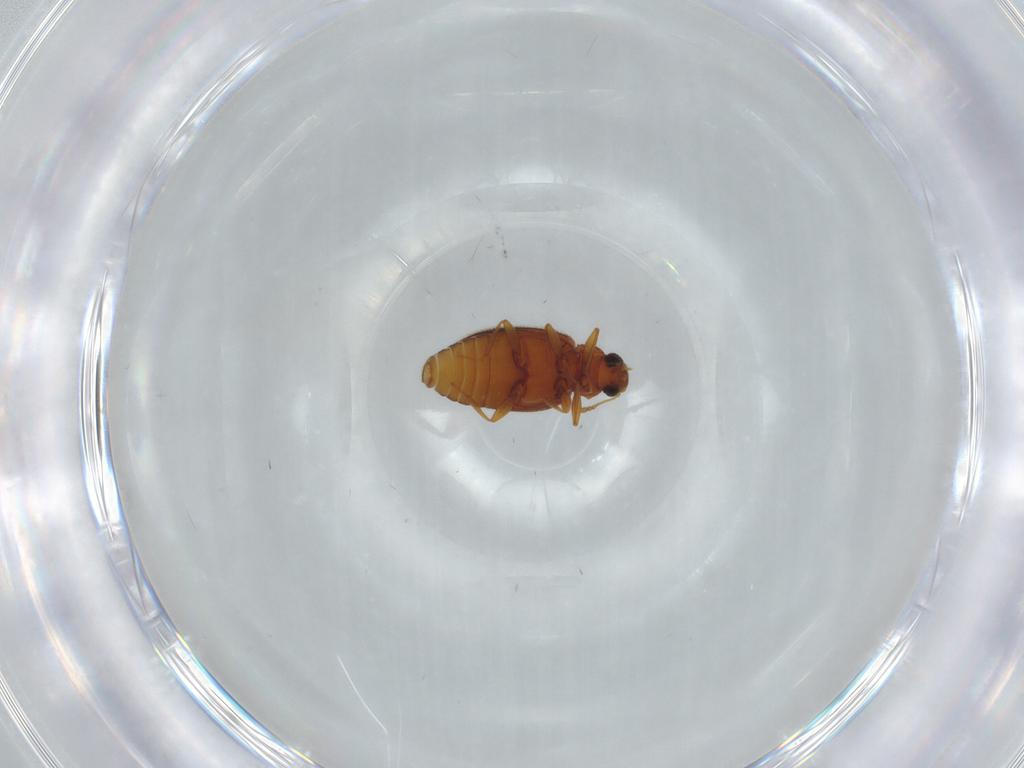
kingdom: Animalia
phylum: Arthropoda
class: Insecta
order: Coleoptera
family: Latridiidae
